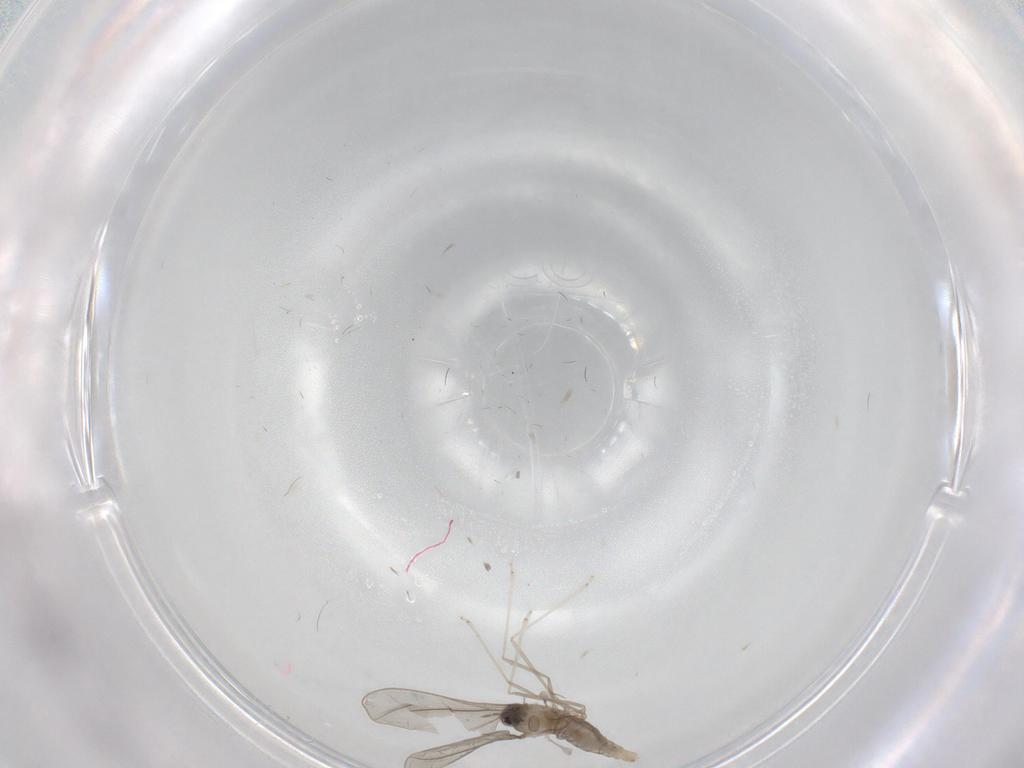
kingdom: Animalia
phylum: Arthropoda
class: Insecta
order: Diptera
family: Cecidomyiidae
